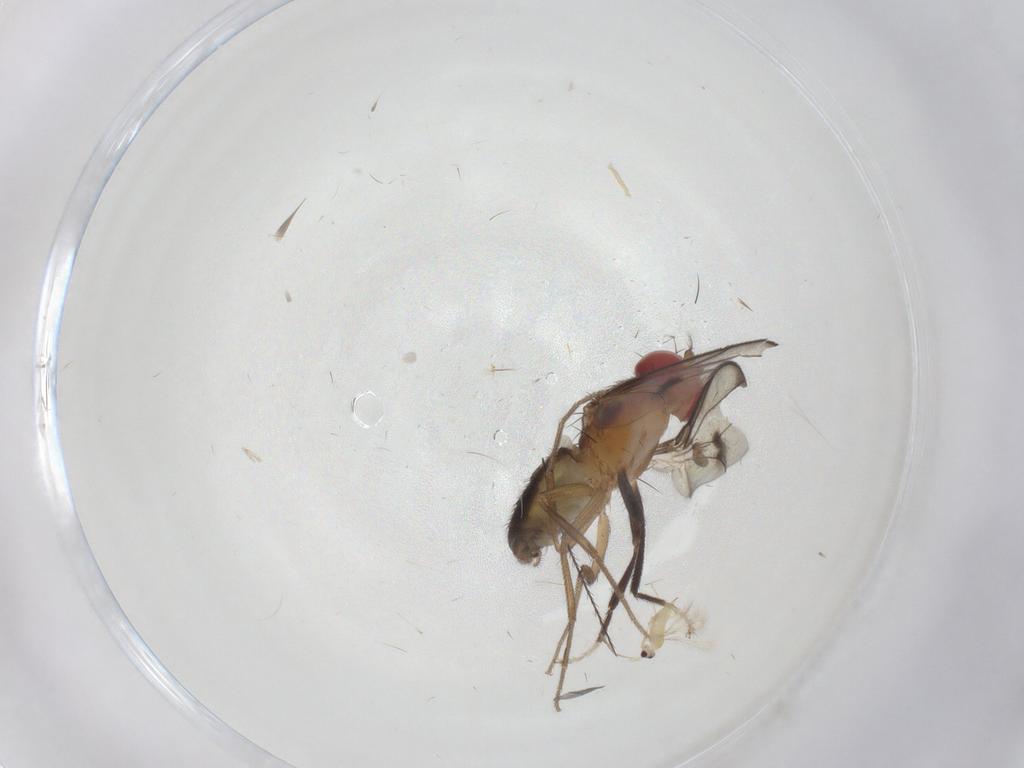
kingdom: Animalia
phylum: Arthropoda
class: Insecta
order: Diptera
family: Drosophilidae
